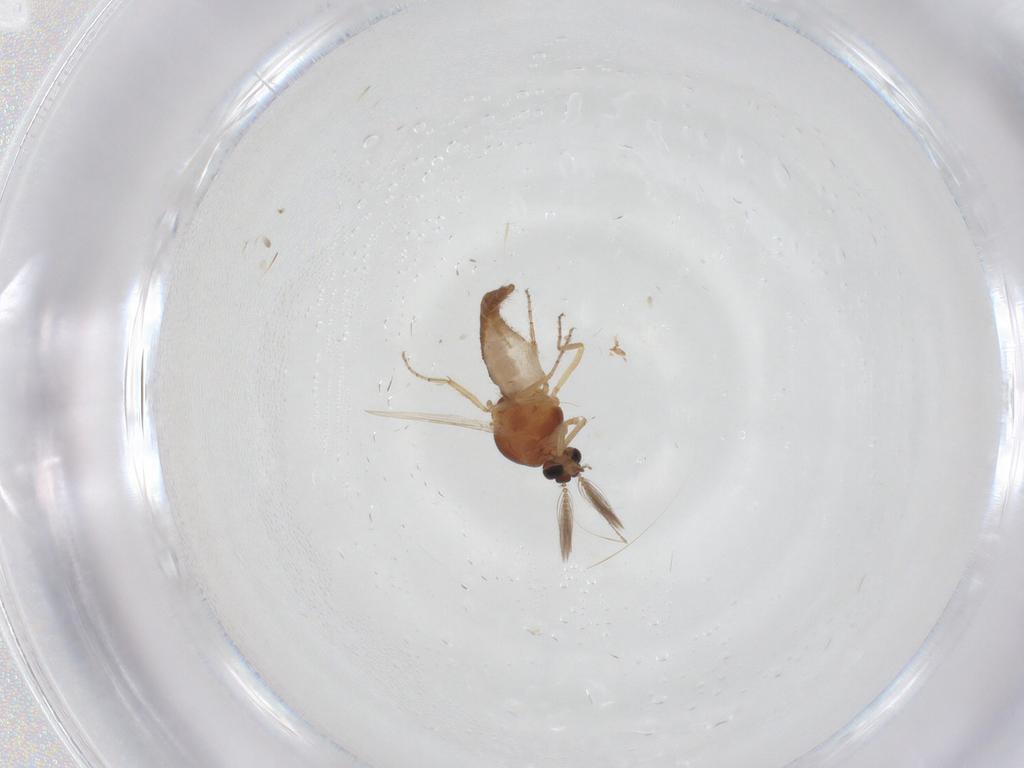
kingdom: Animalia
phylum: Arthropoda
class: Insecta
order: Diptera
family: Ceratopogonidae
